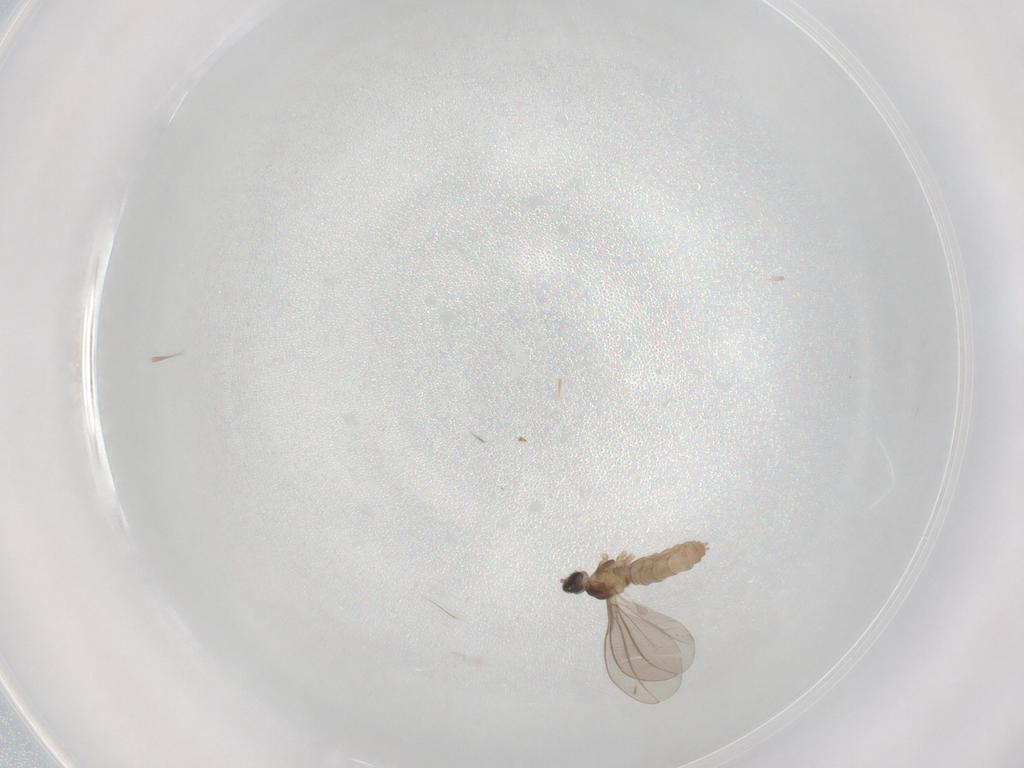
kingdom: Animalia
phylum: Arthropoda
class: Insecta
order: Diptera
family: Cecidomyiidae
